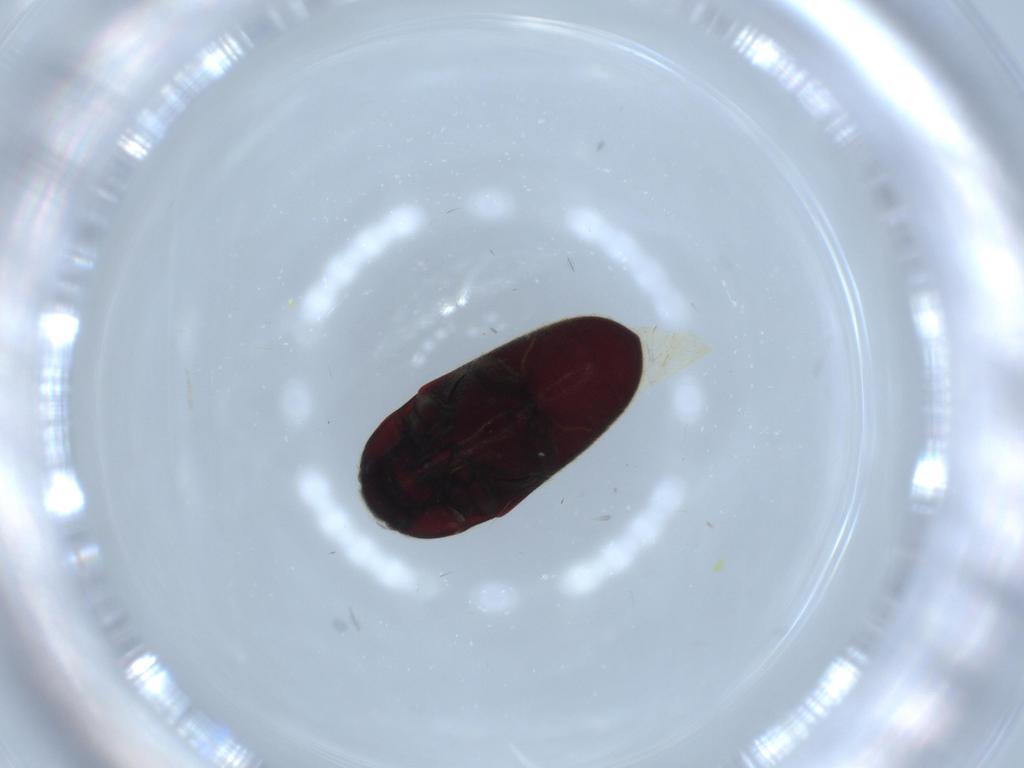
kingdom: Animalia
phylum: Arthropoda
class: Insecta
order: Coleoptera
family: Throscidae
